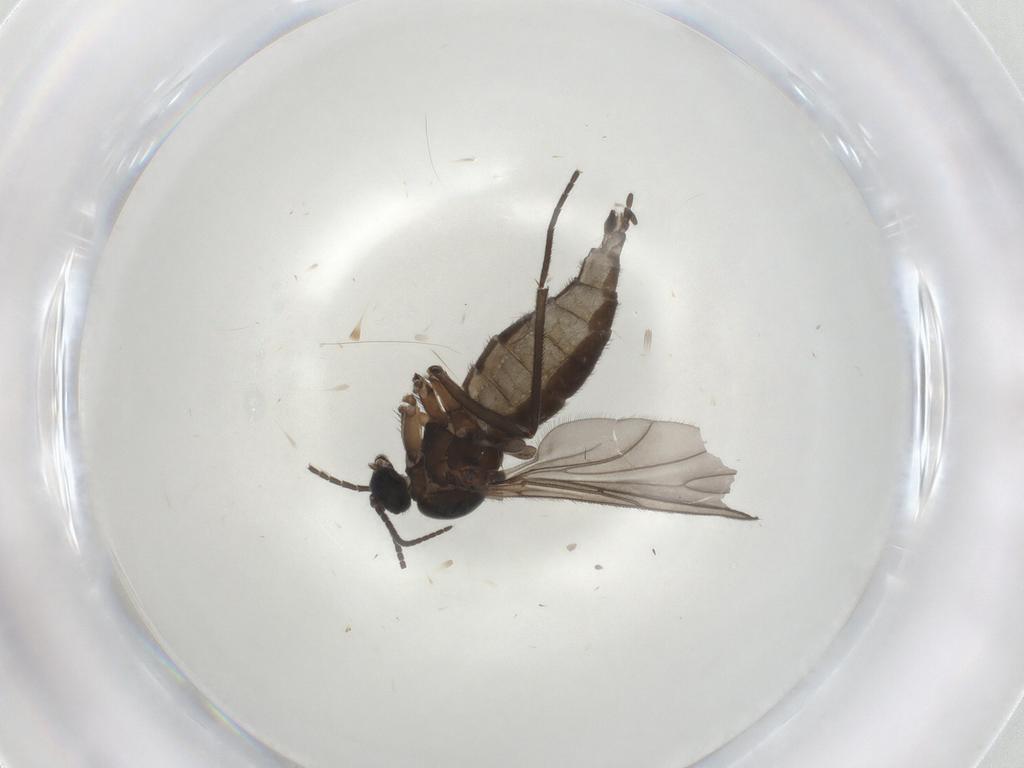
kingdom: Animalia
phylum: Arthropoda
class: Insecta
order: Diptera
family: Sciaridae
